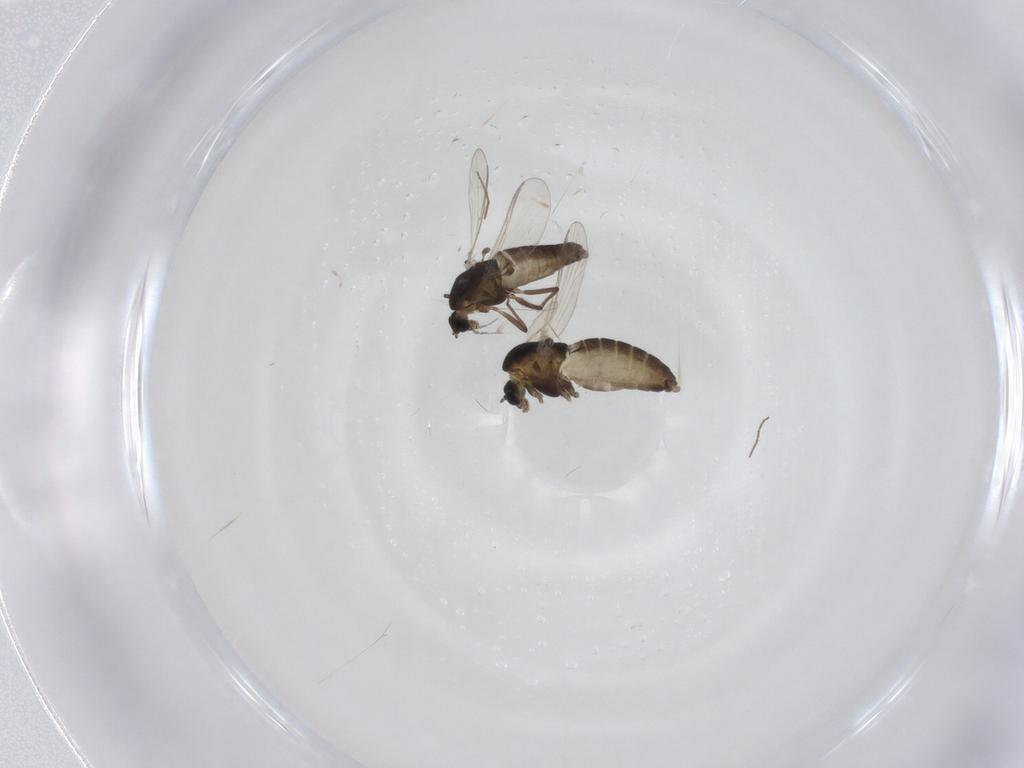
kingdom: Animalia
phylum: Arthropoda
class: Insecta
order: Diptera
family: Chironomidae
